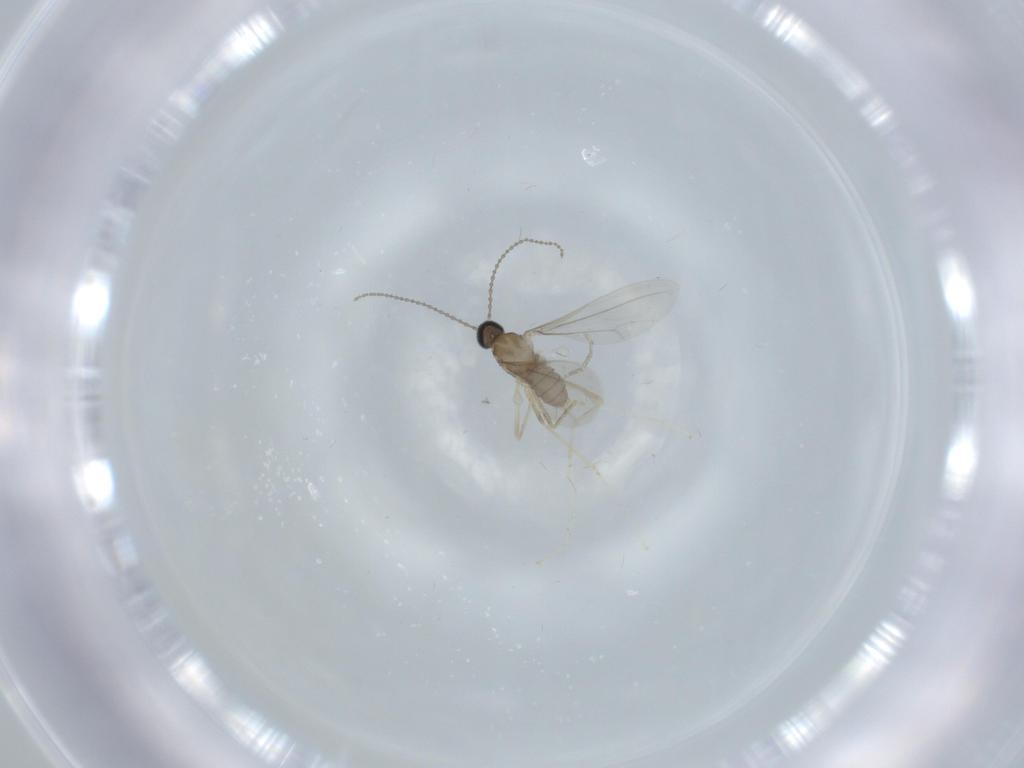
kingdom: Animalia
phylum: Arthropoda
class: Insecta
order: Diptera
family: Cecidomyiidae
